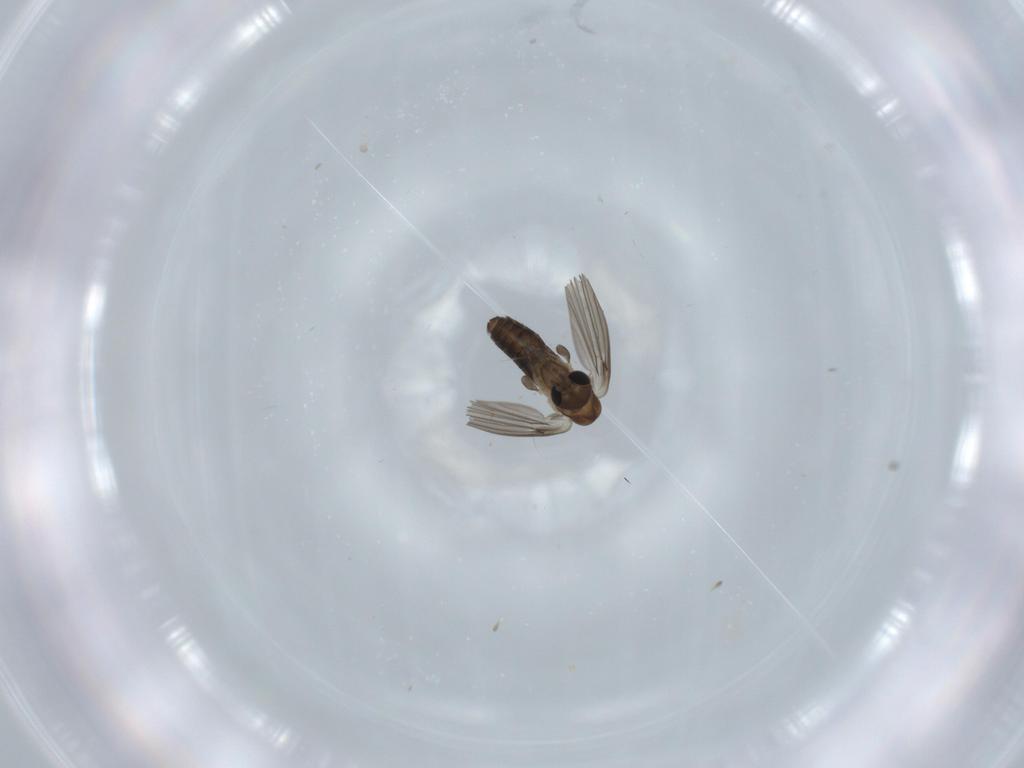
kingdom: Animalia
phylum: Arthropoda
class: Insecta
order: Diptera
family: Psychodidae
